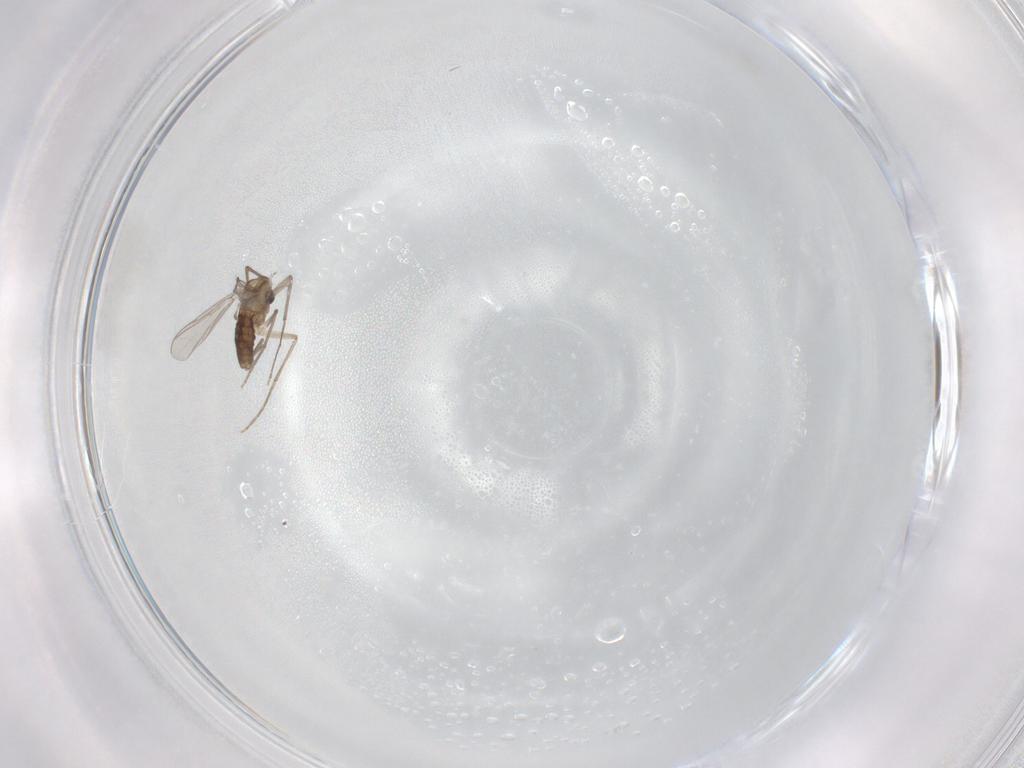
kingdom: Animalia
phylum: Arthropoda
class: Insecta
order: Diptera
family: Chironomidae
